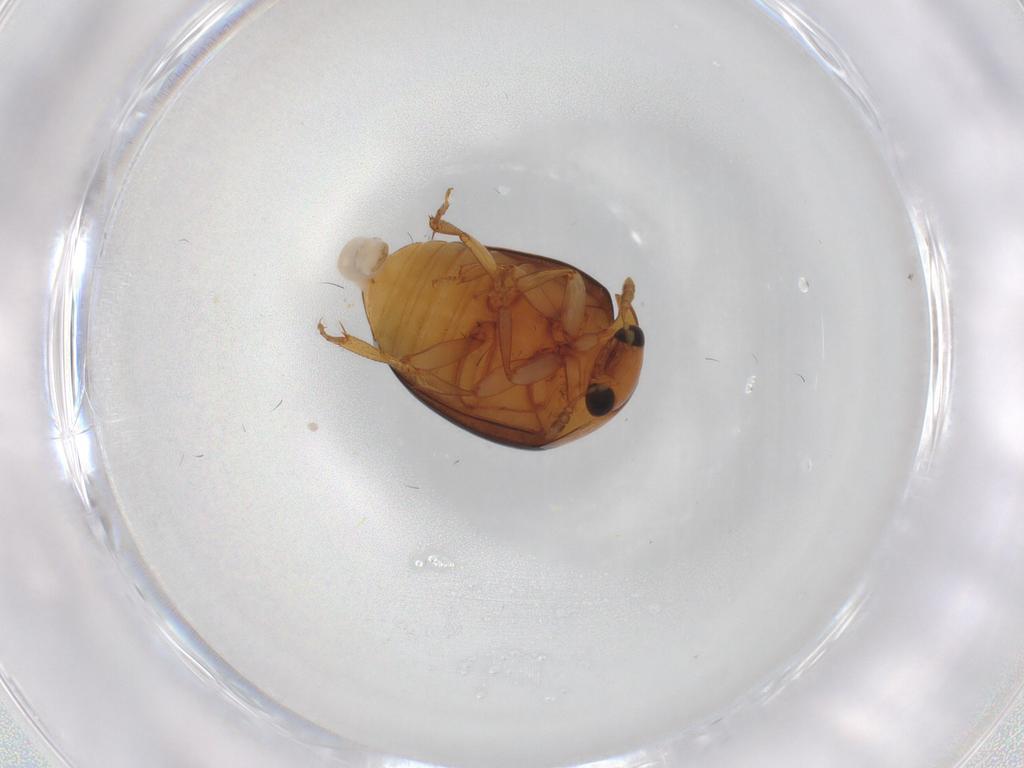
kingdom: Animalia
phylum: Arthropoda
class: Insecta
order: Coleoptera
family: Nitidulidae
